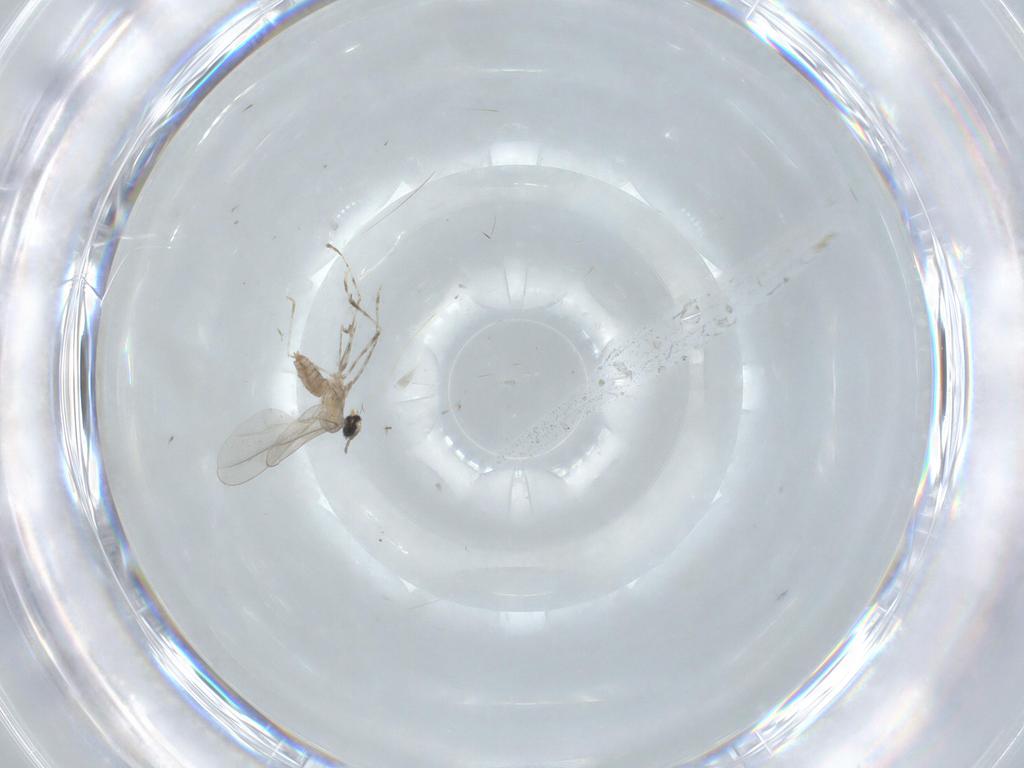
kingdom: Animalia
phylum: Arthropoda
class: Insecta
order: Diptera
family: Cecidomyiidae
